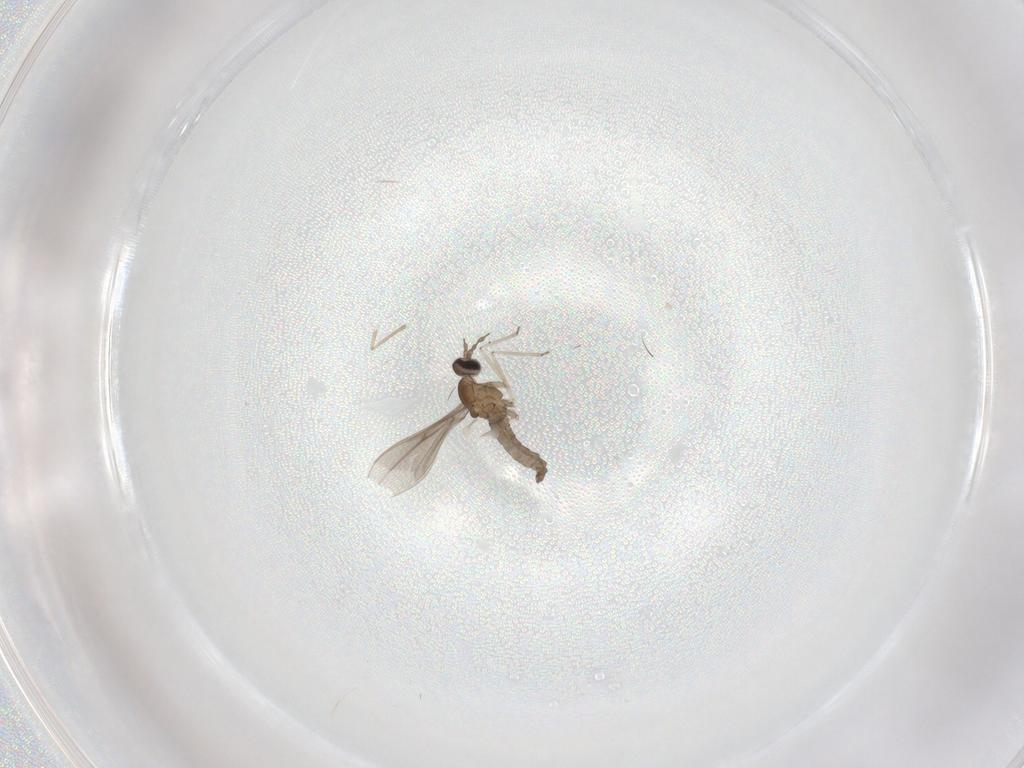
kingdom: Animalia
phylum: Arthropoda
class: Insecta
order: Diptera
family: Cecidomyiidae
